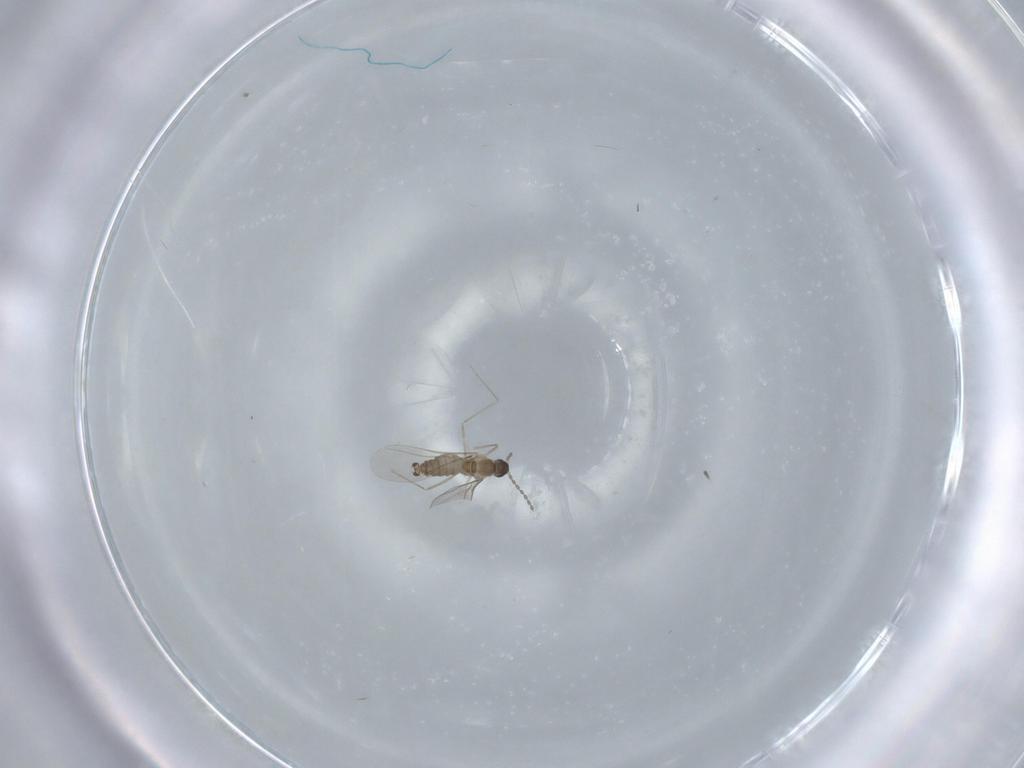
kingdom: Animalia
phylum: Arthropoda
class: Insecta
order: Diptera
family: Cecidomyiidae
